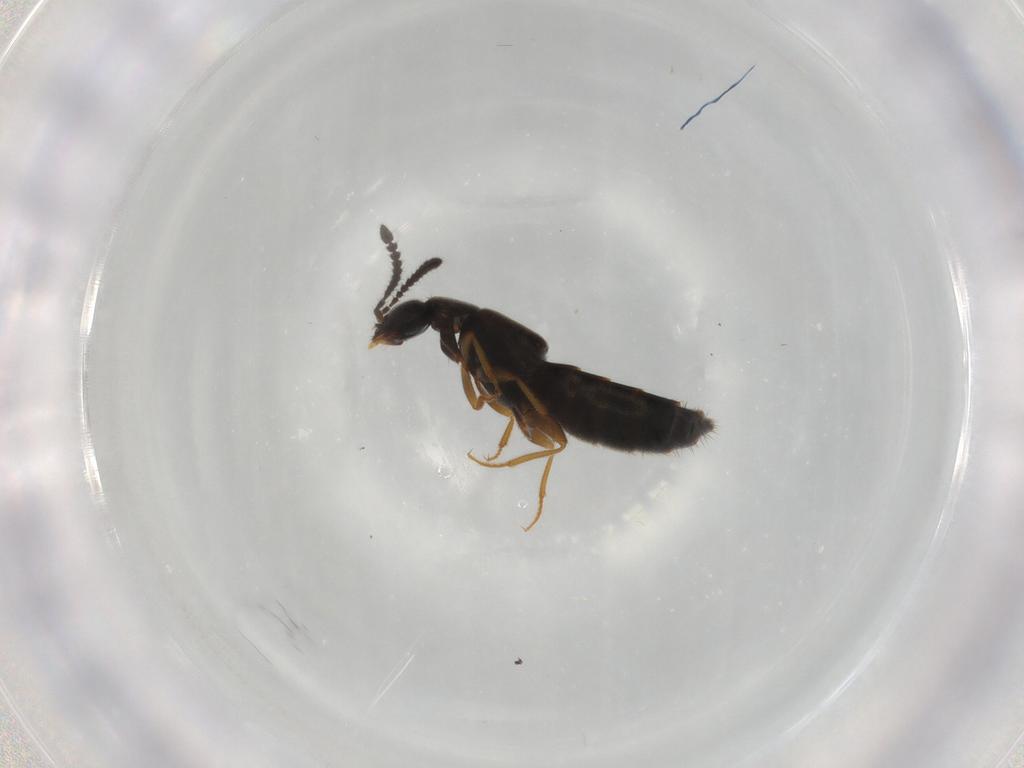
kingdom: Animalia
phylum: Arthropoda
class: Insecta
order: Coleoptera
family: Staphylinidae
